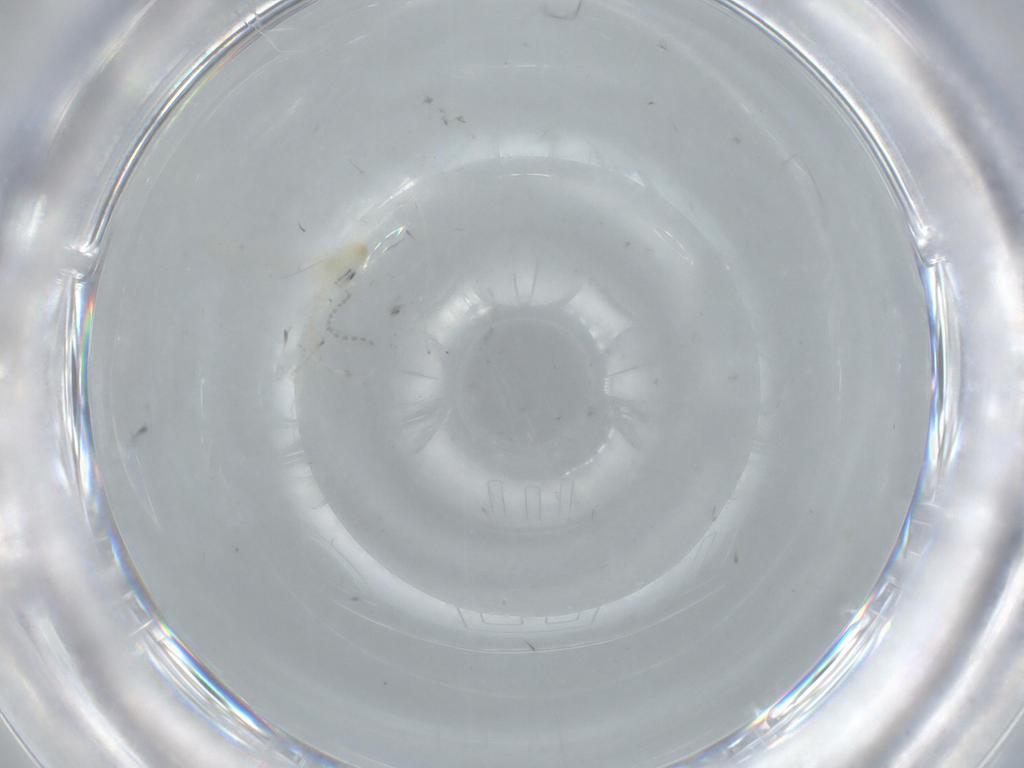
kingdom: Animalia
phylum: Arthropoda
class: Insecta
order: Diptera
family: Cecidomyiidae
